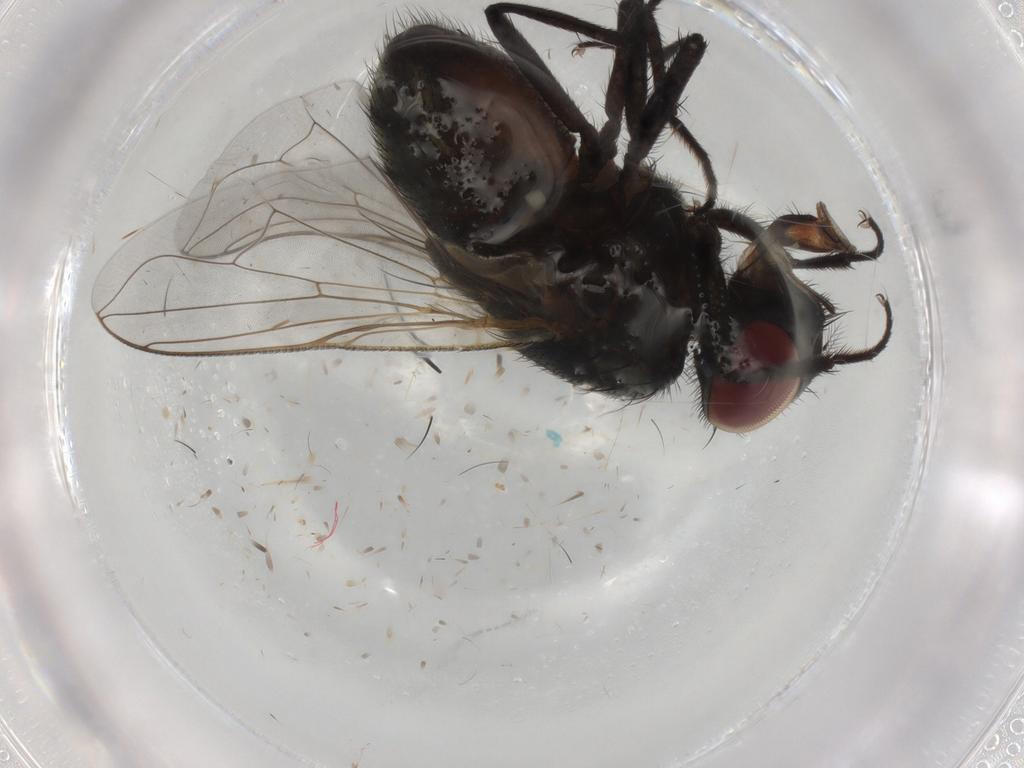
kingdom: Animalia
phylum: Arthropoda
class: Insecta
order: Diptera
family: Muscidae
